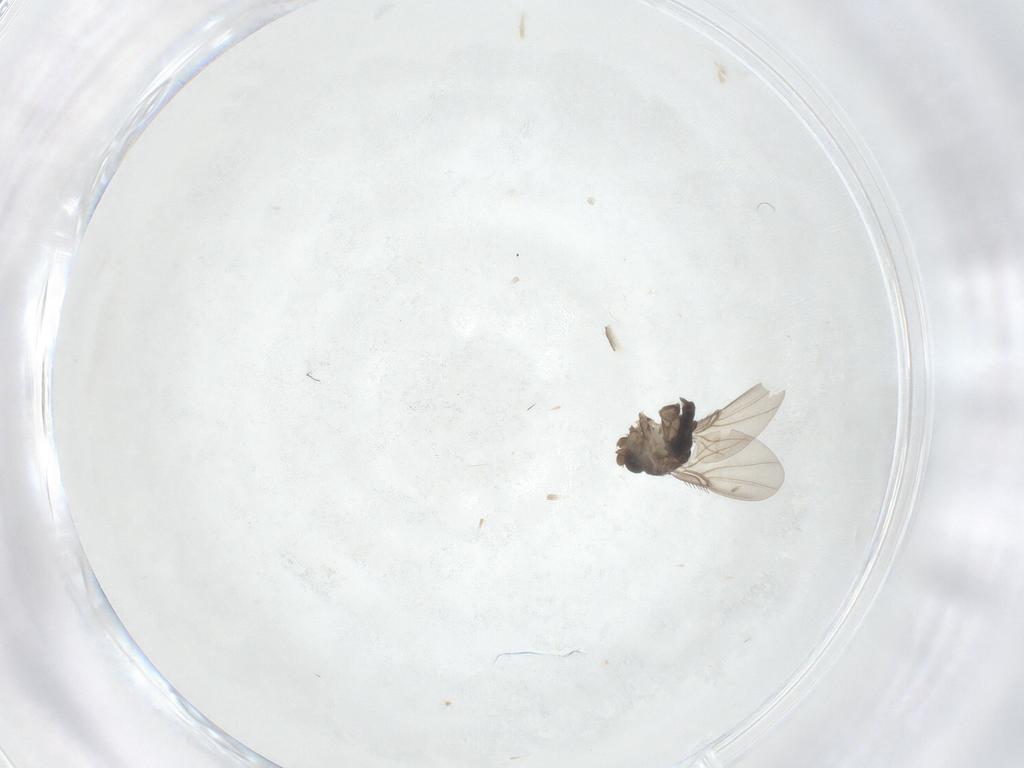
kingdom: Animalia
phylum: Arthropoda
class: Insecta
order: Diptera
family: Phoridae
